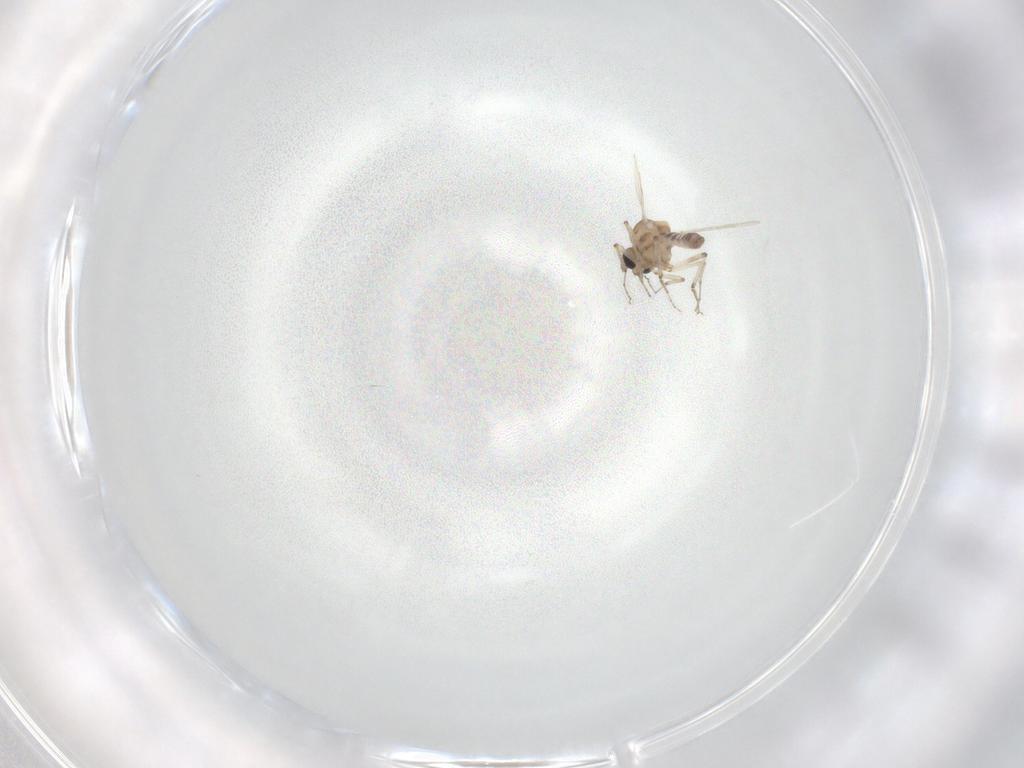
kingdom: Animalia
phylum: Arthropoda
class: Insecta
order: Diptera
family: Ceratopogonidae
